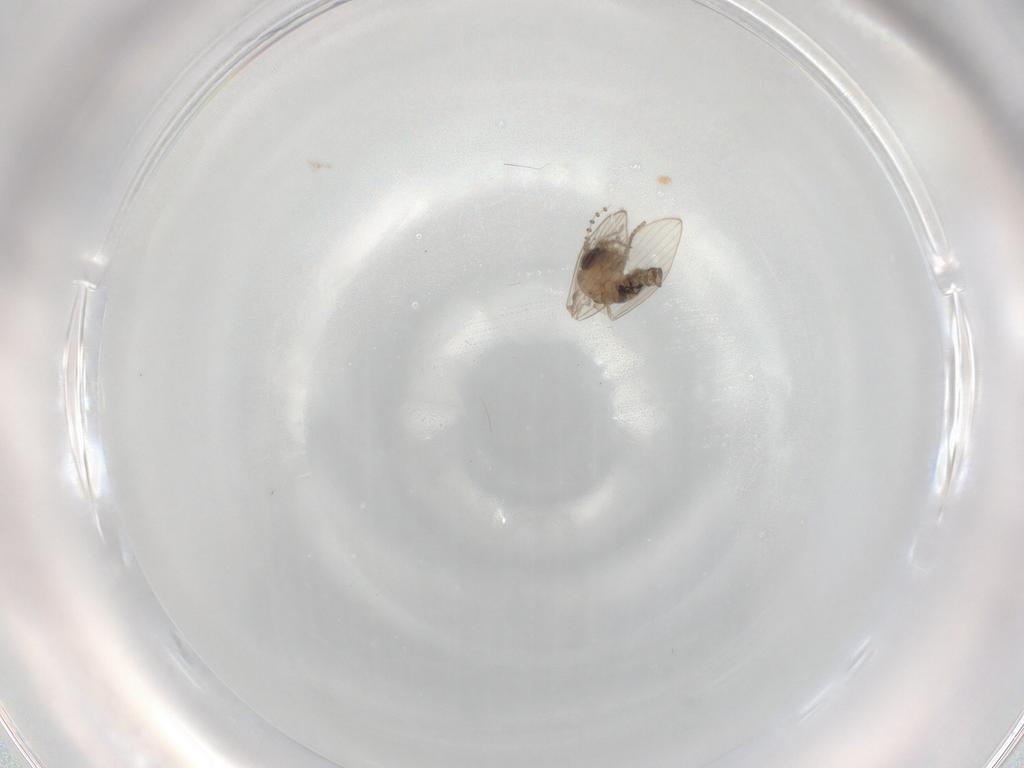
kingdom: Animalia
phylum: Arthropoda
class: Insecta
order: Diptera
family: Psychodidae
